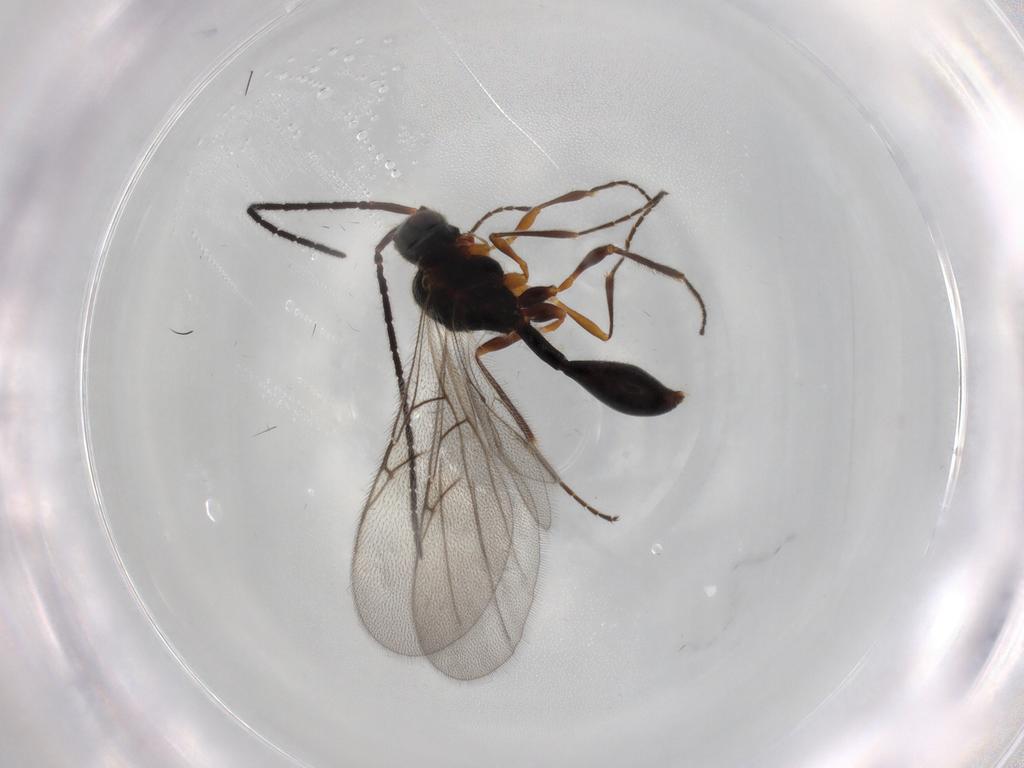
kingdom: Animalia
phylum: Arthropoda
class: Insecta
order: Hymenoptera
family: Diapriidae
